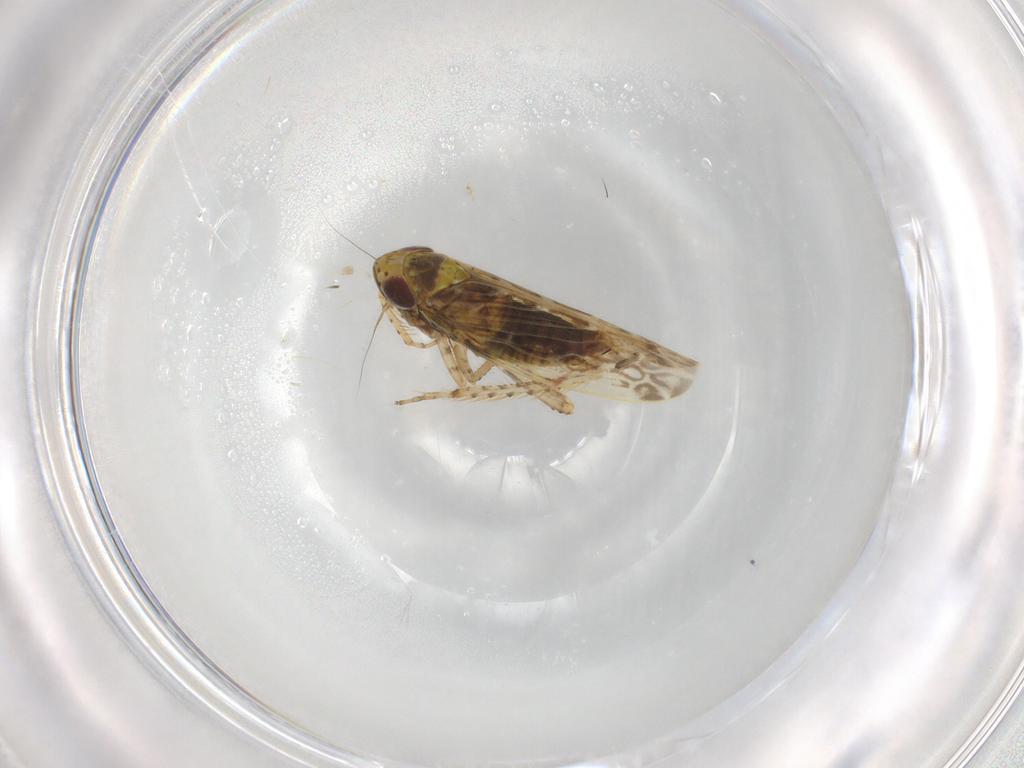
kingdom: Animalia
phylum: Arthropoda
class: Insecta
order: Hemiptera
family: Cicadellidae
